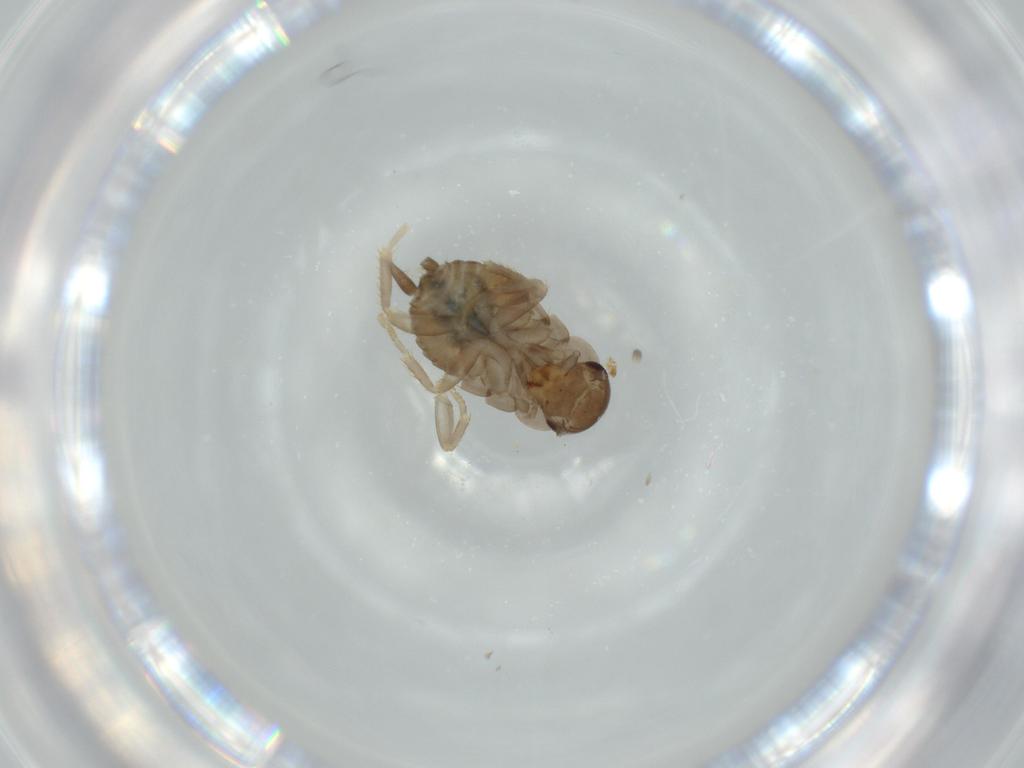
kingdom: Animalia
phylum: Arthropoda
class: Insecta
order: Blattodea
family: Ectobiidae
